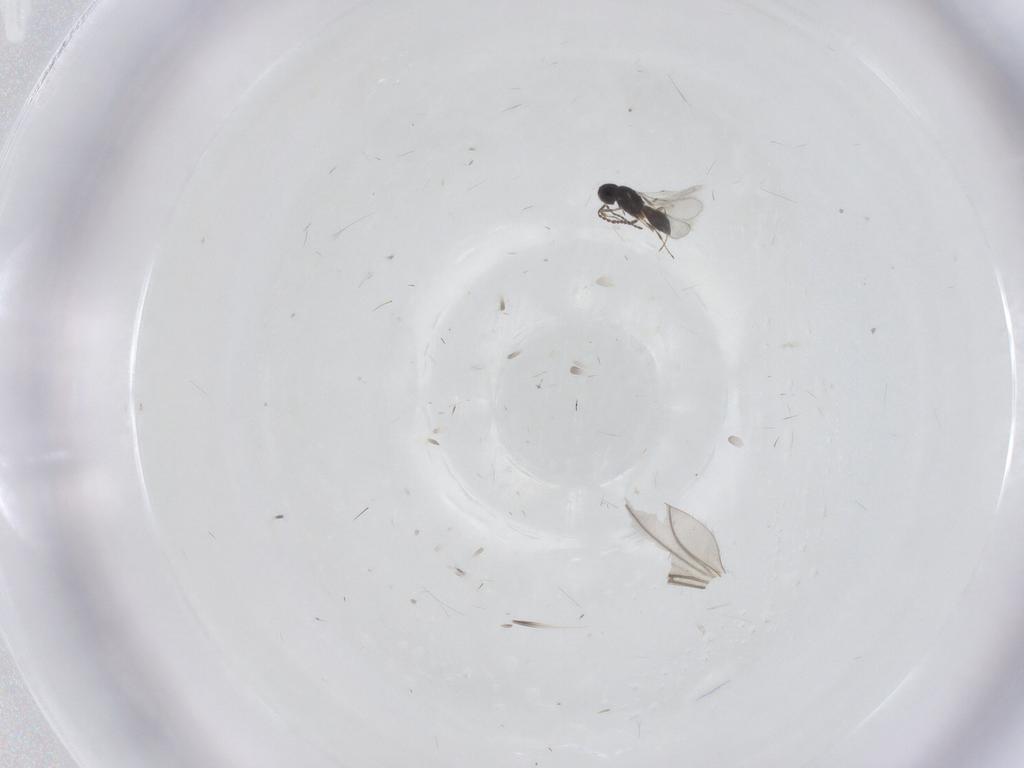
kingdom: Animalia
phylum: Arthropoda
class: Insecta
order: Hymenoptera
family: Scelionidae
